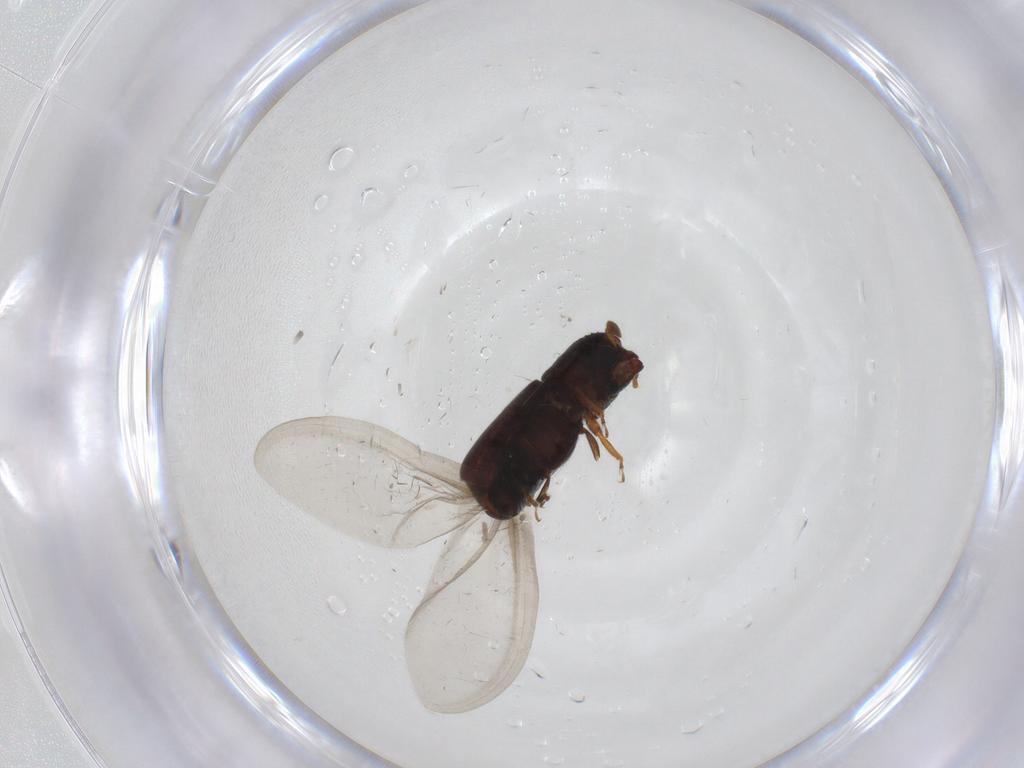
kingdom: Animalia
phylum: Arthropoda
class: Insecta
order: Coleoptera
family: Curculionidae
